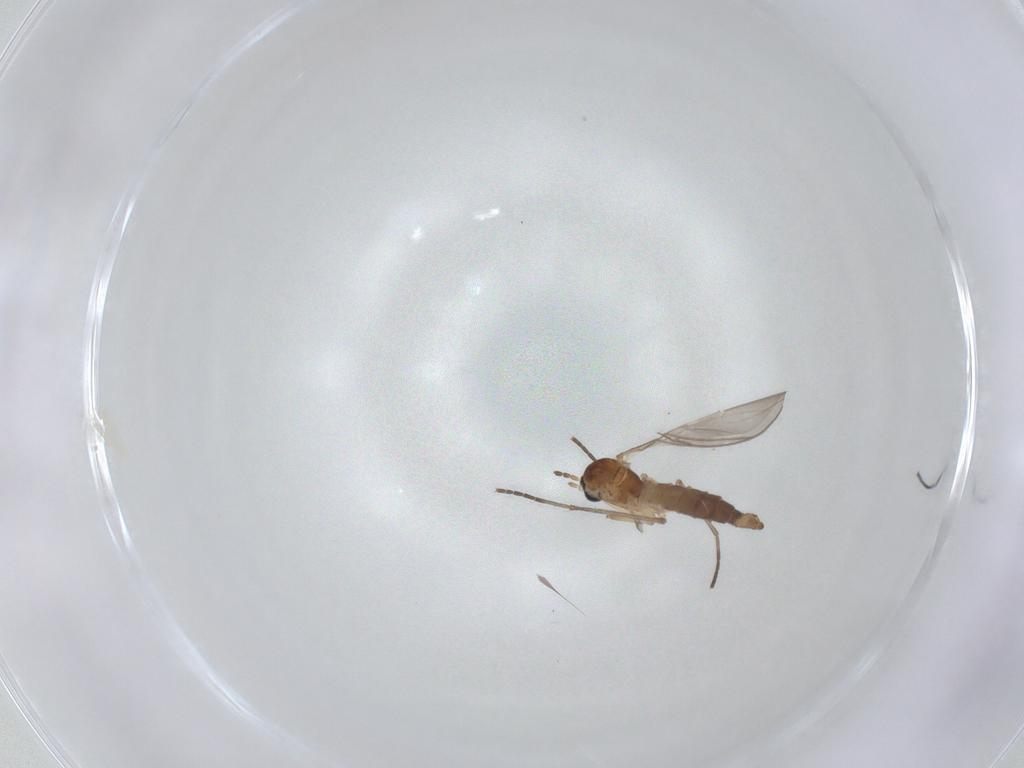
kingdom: Animalia
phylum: Arthropoda
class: Insecta
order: Diptera
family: Sciaridae
